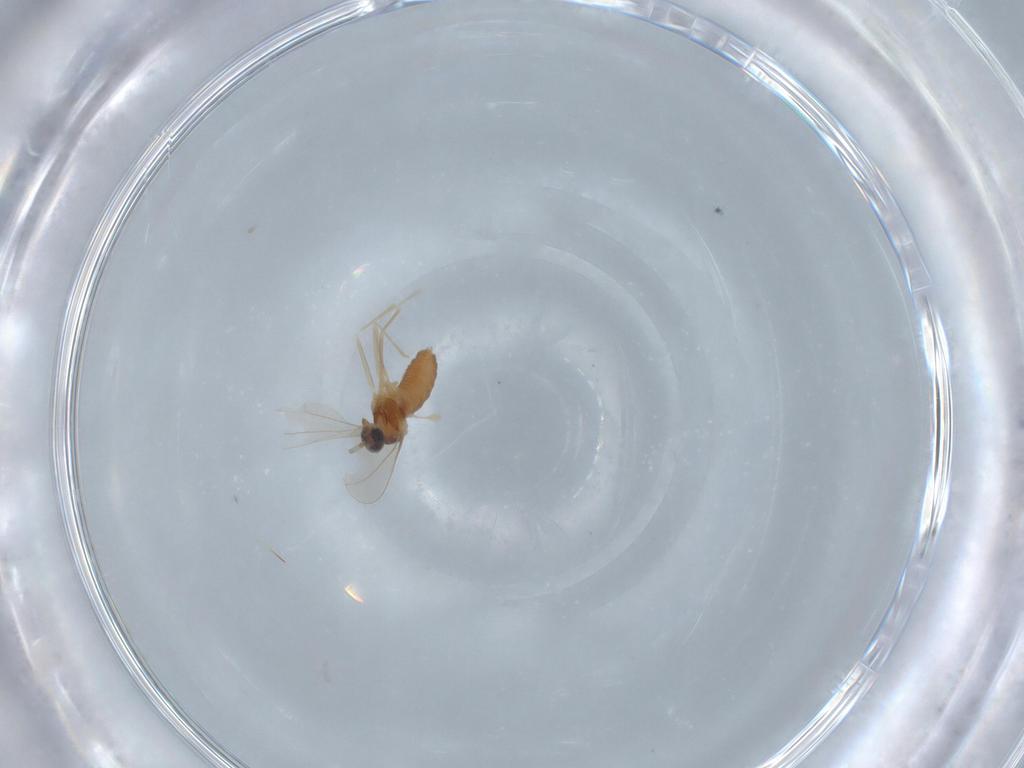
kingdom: Animalia
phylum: Arthropoda
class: Insecta
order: Diptera
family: Cecidomyiidae
